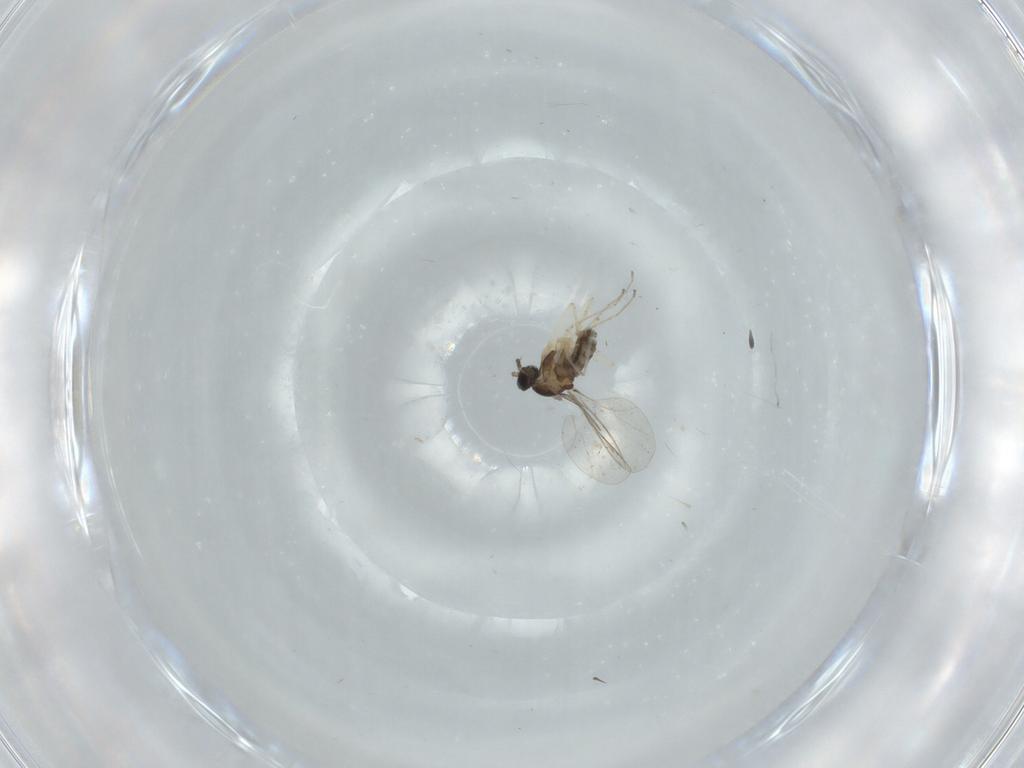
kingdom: Animalia
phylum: Arthropoda
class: Insecta
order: Diptera
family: Cecidomyiidae
